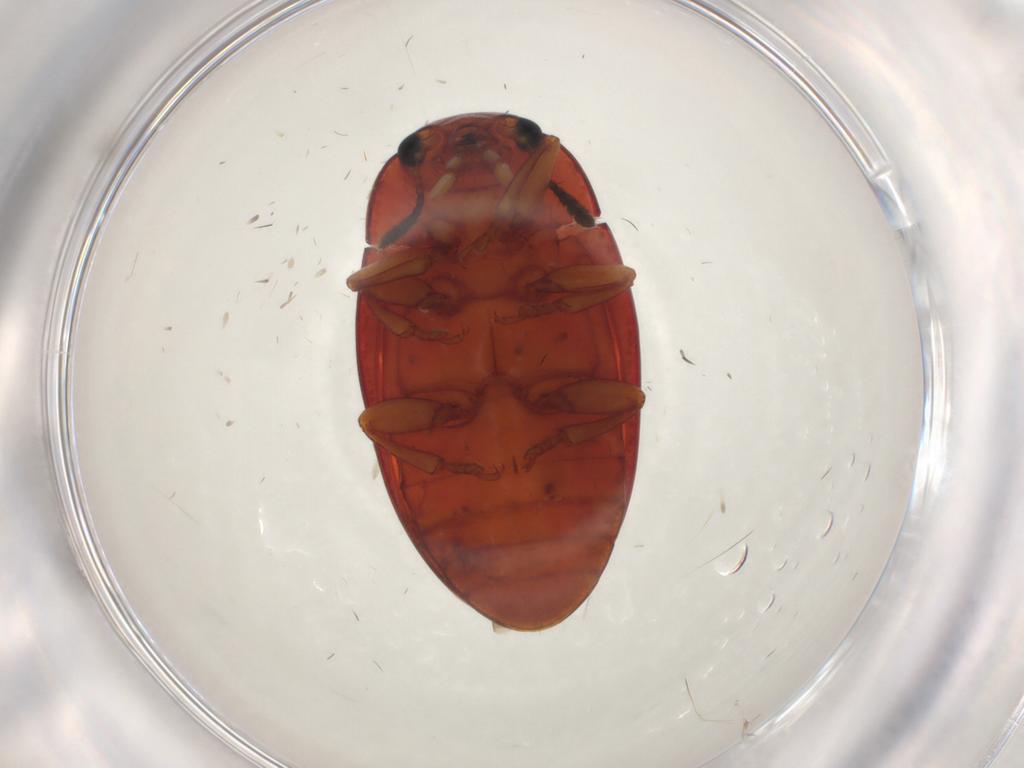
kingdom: Animalia
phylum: Arthropoda
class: Insecta
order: Coleoptera
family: Erotylidae
